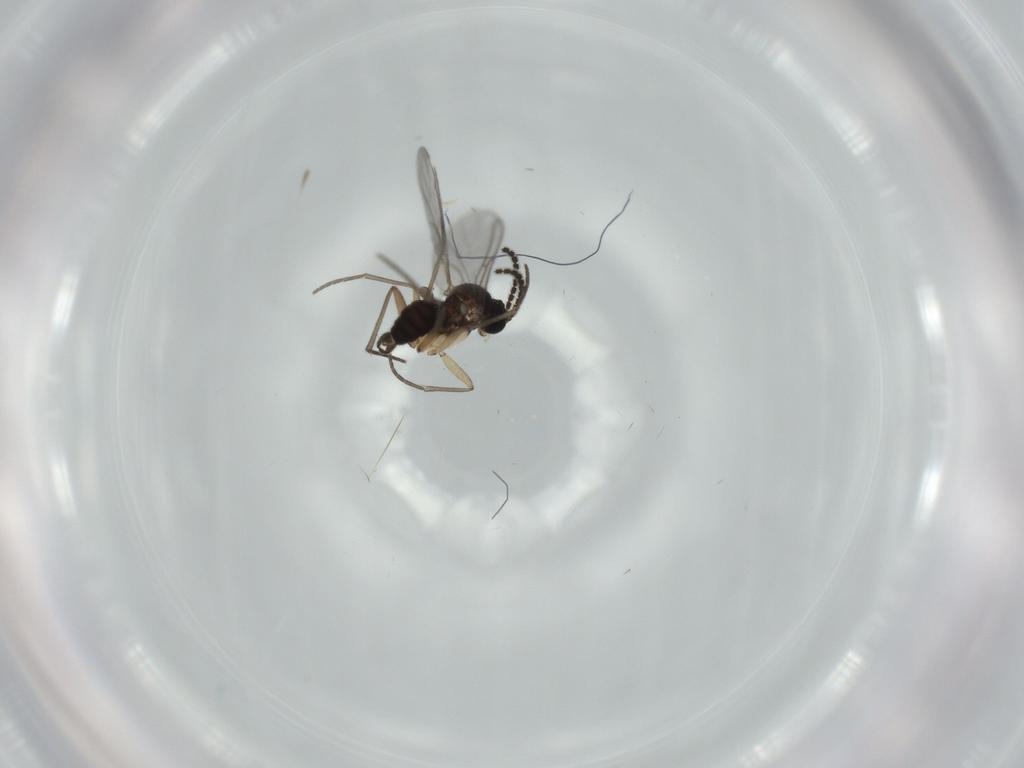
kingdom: Animalia
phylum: Arthropoda
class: Insecta
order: Diptera
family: Sciaridae
